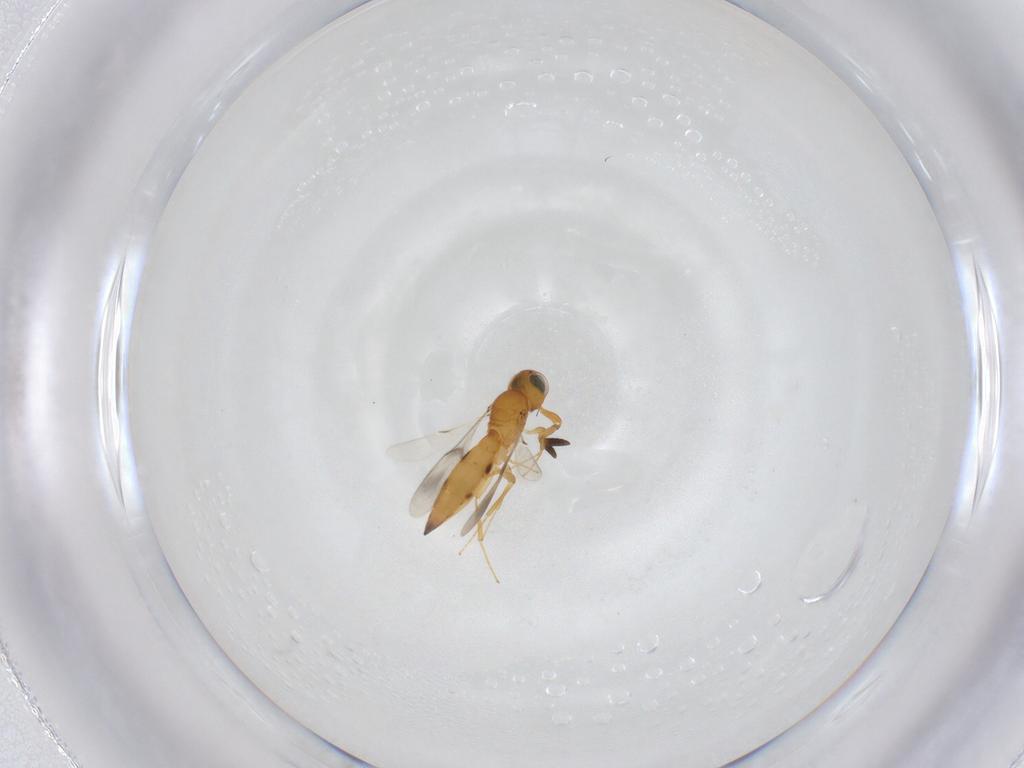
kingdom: Animalia
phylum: Arthropoda
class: Insecta
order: Hymenoptera
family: Scelionidae
